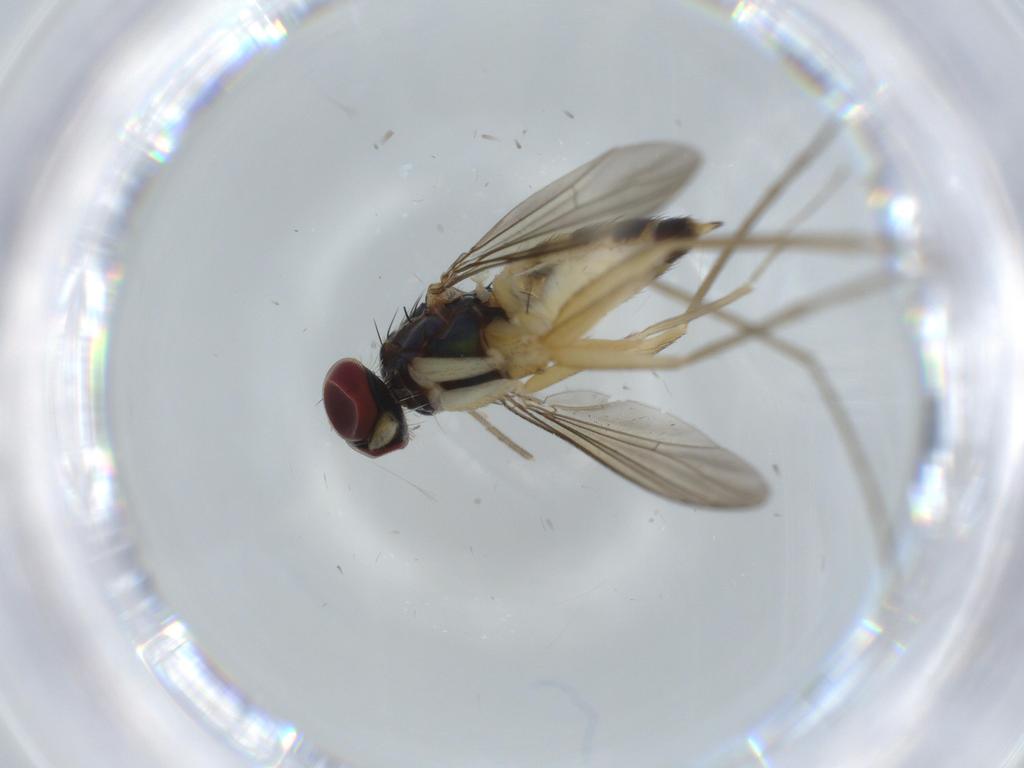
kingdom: Animalia
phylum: Arthropoda
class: Insecta
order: Diptera
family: Dolichopodidae
